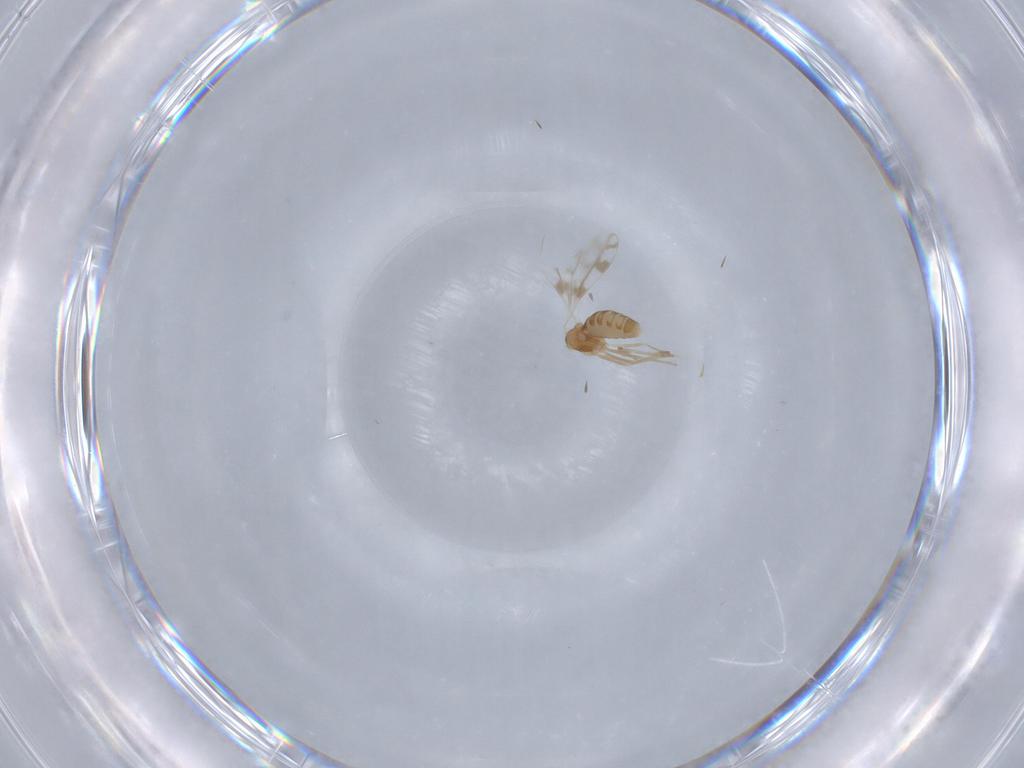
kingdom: Animalia
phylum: Arthropoda
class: Insecta
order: Diptera
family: Cecidomyiidae
